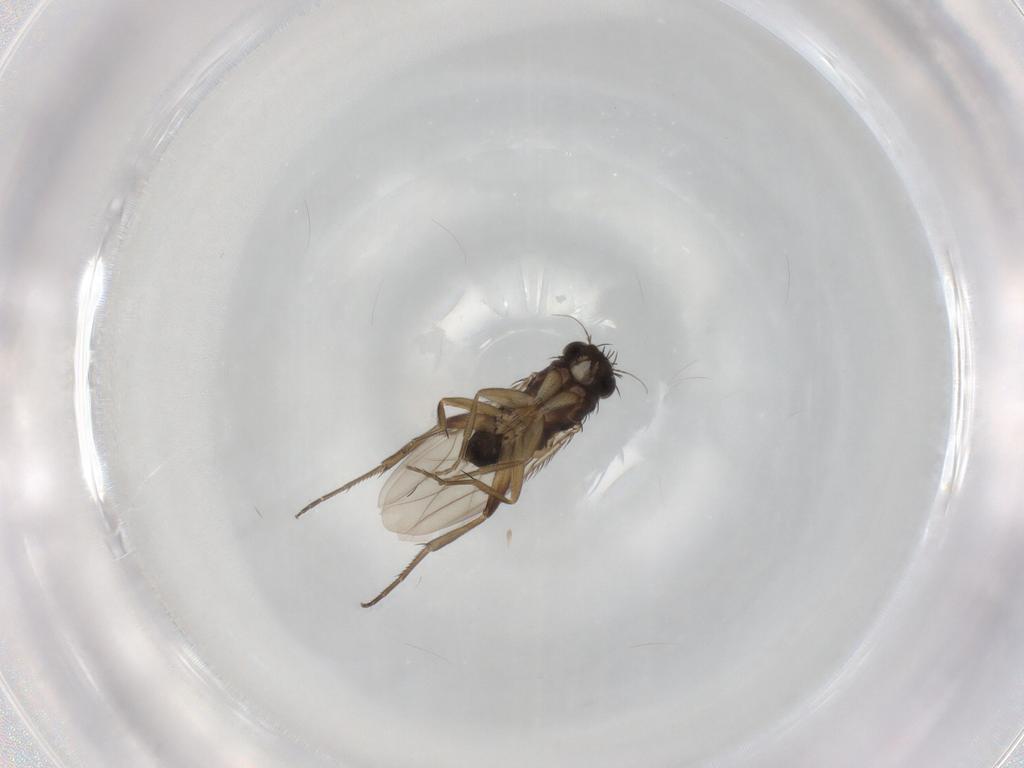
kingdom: Animalia
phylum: Arthropoda
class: Insecta
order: Diptera
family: Phoridae
